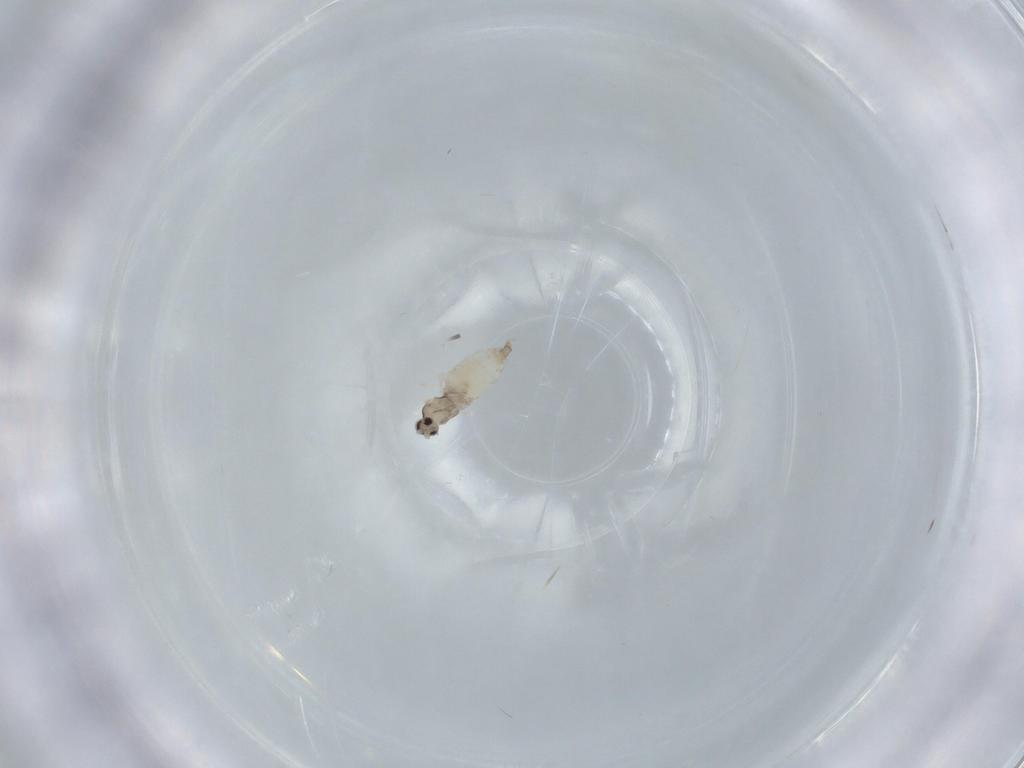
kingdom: Animalia
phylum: Arthropoda
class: Insecta
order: Diptera
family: Cecidomyiidae
